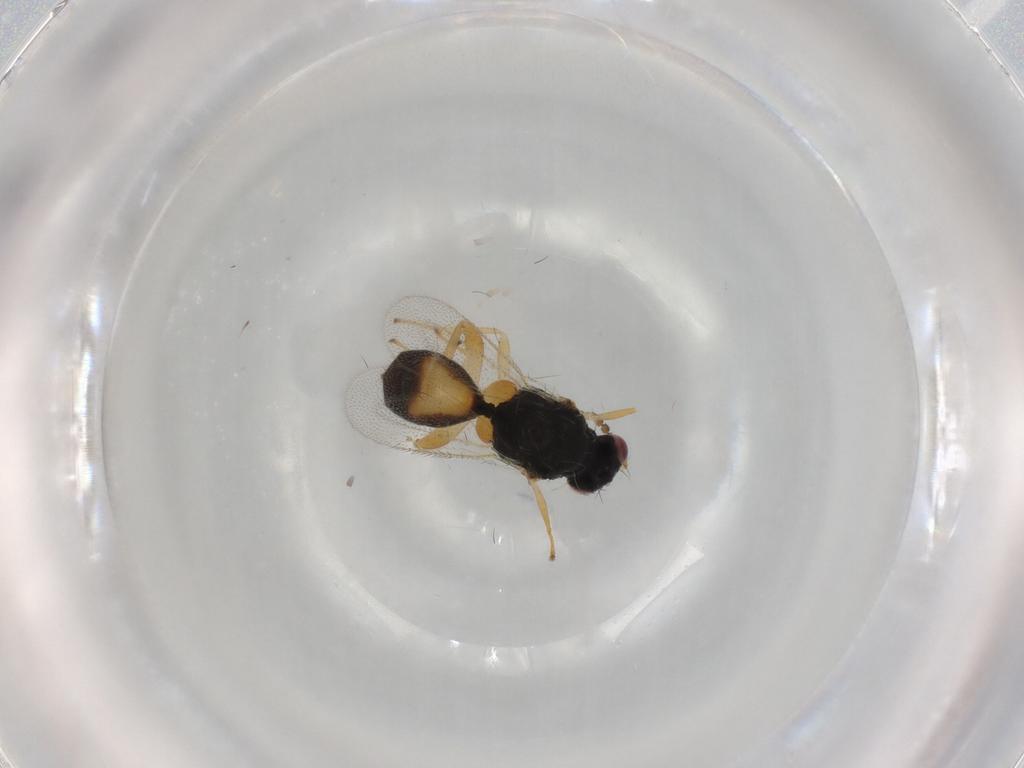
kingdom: Animalia
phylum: Arthropoda
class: Insecta
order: Hymenoptera
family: Eulophidae
